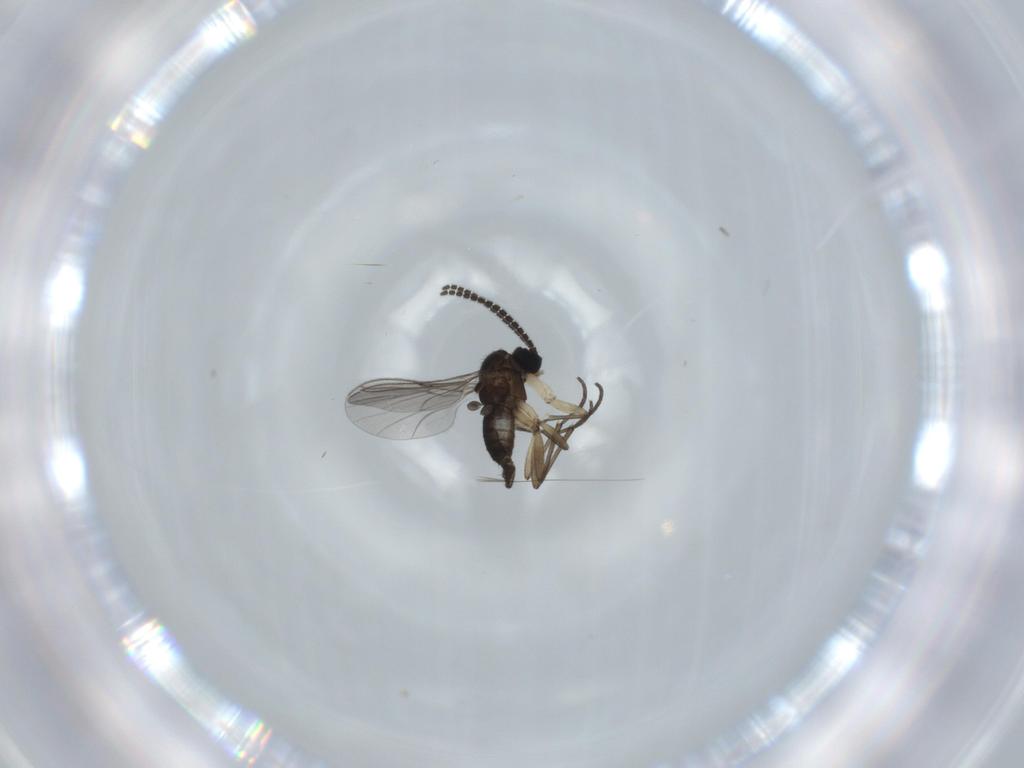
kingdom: Animalia
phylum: Arthropoda
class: Insecta
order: Diptera
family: Sciaridae
